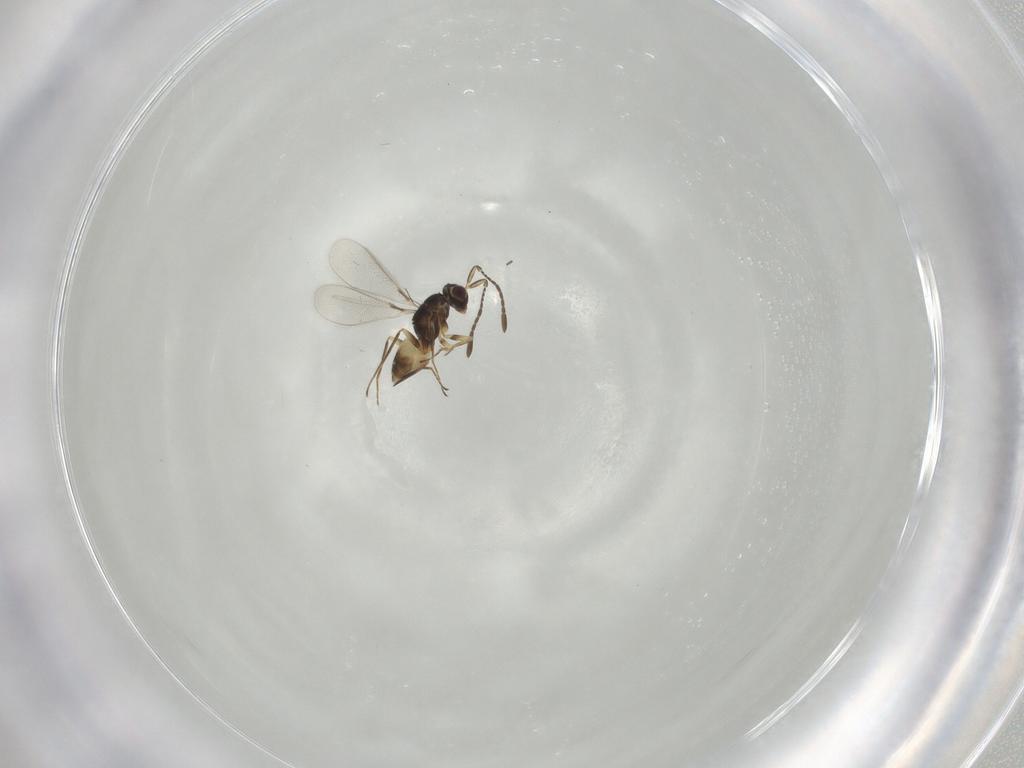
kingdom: Animalia
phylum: Arthropoda
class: Insecta
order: Hymenoptera
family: Mymaridae
